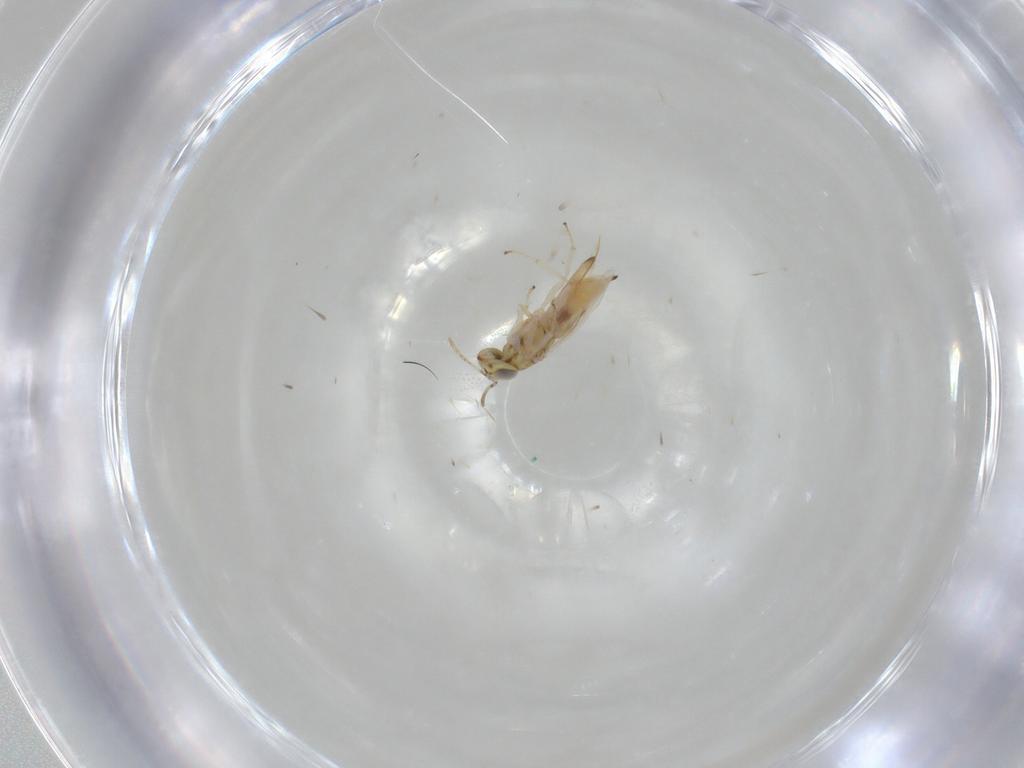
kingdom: Animalia
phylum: Arthropoda
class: Insecta
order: Hymenoptera
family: Encyrtidae
